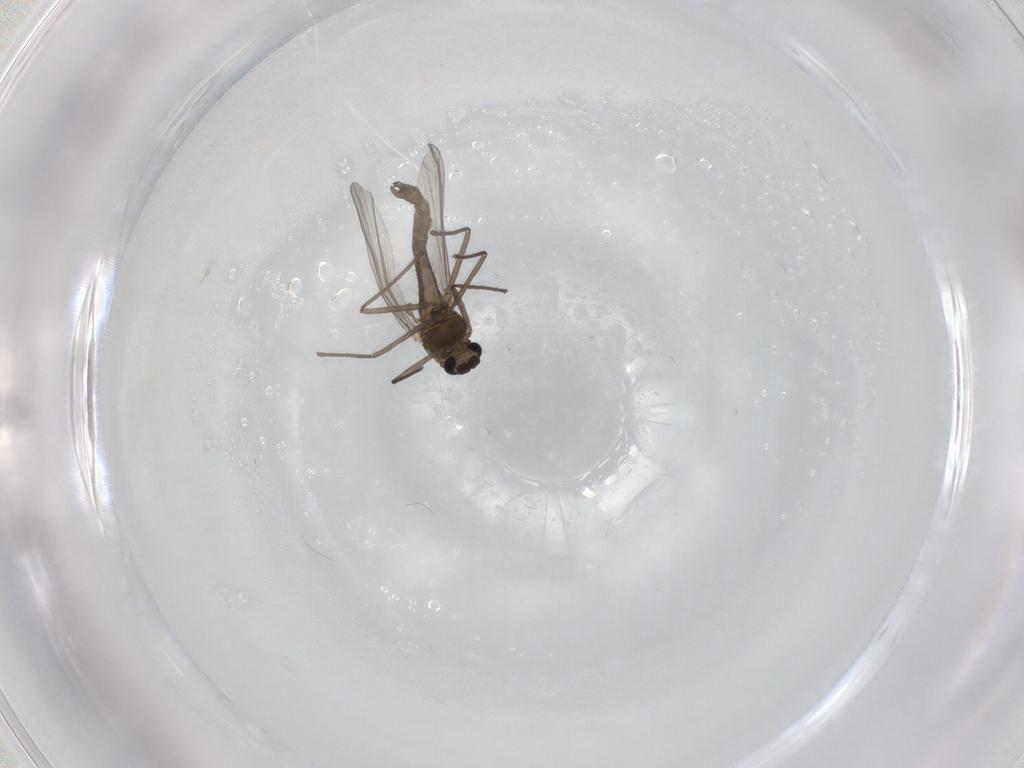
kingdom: Animalia
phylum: Arthropoda
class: Insecta
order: Diptera
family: Chironomidae
